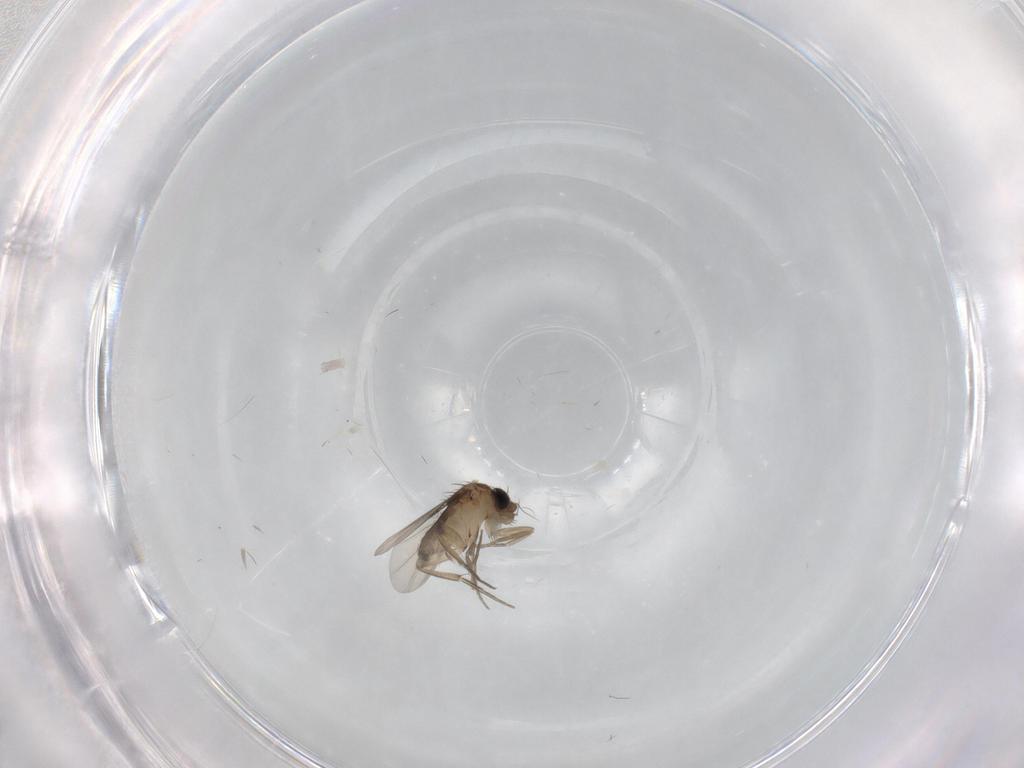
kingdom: Animalia
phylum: Arthropoda
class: Insecta
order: Diptera
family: Phoridae
